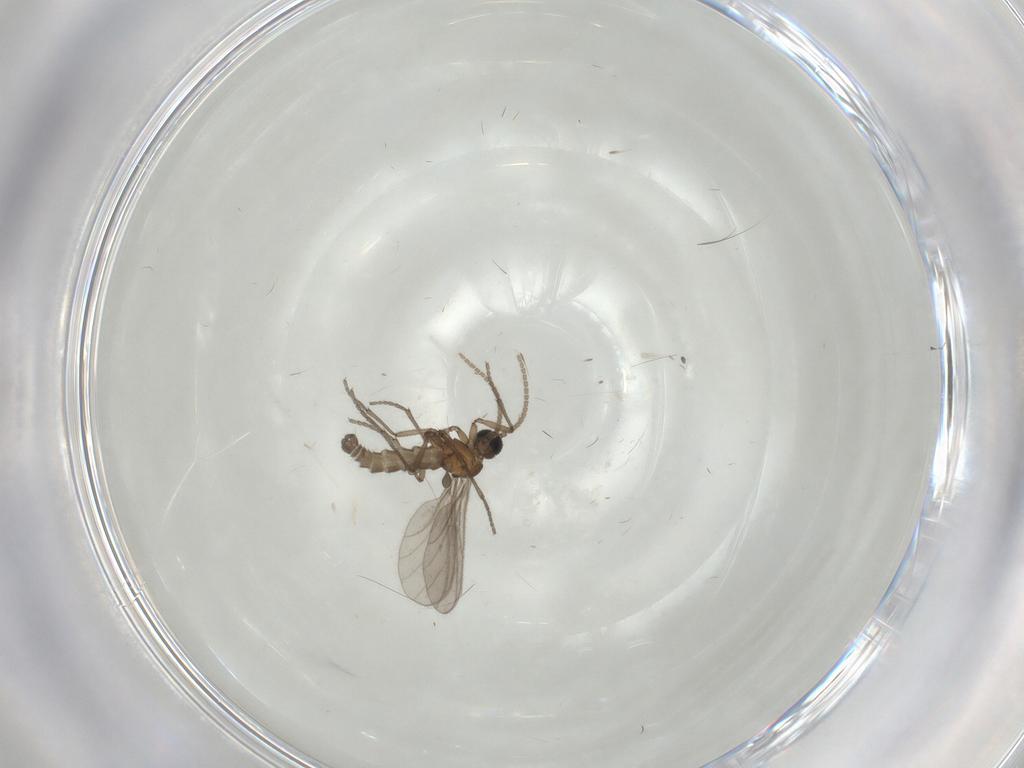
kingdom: Animalia
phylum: Arthropoda
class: Insecta
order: Diptera
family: Sciaridae
